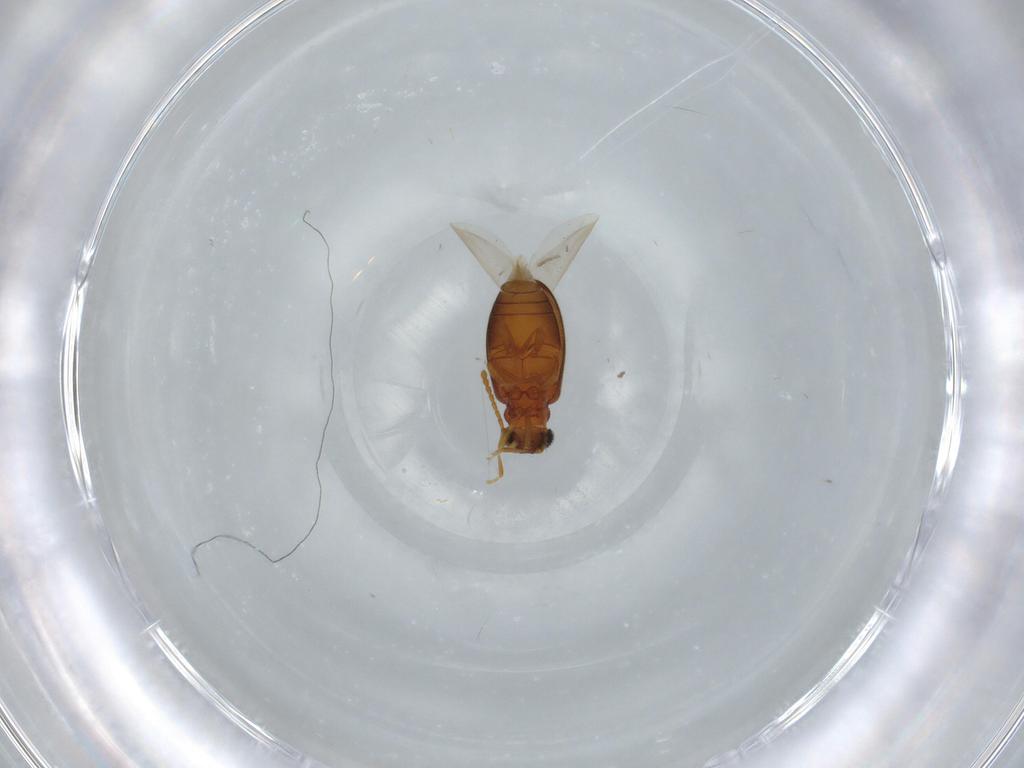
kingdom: Animalia
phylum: Arthropoda
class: Insecta
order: Coleoptera
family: Aderidae
